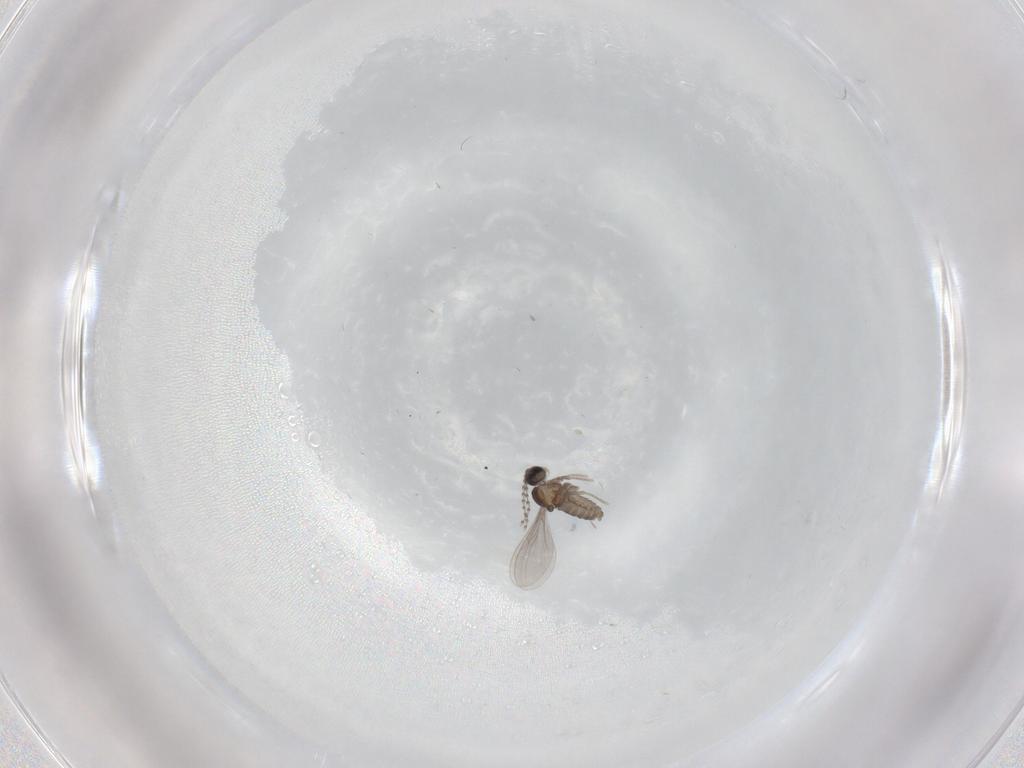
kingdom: Animalia
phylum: Arthropoda
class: Insecta
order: Diptera
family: Cecidomyiidae
